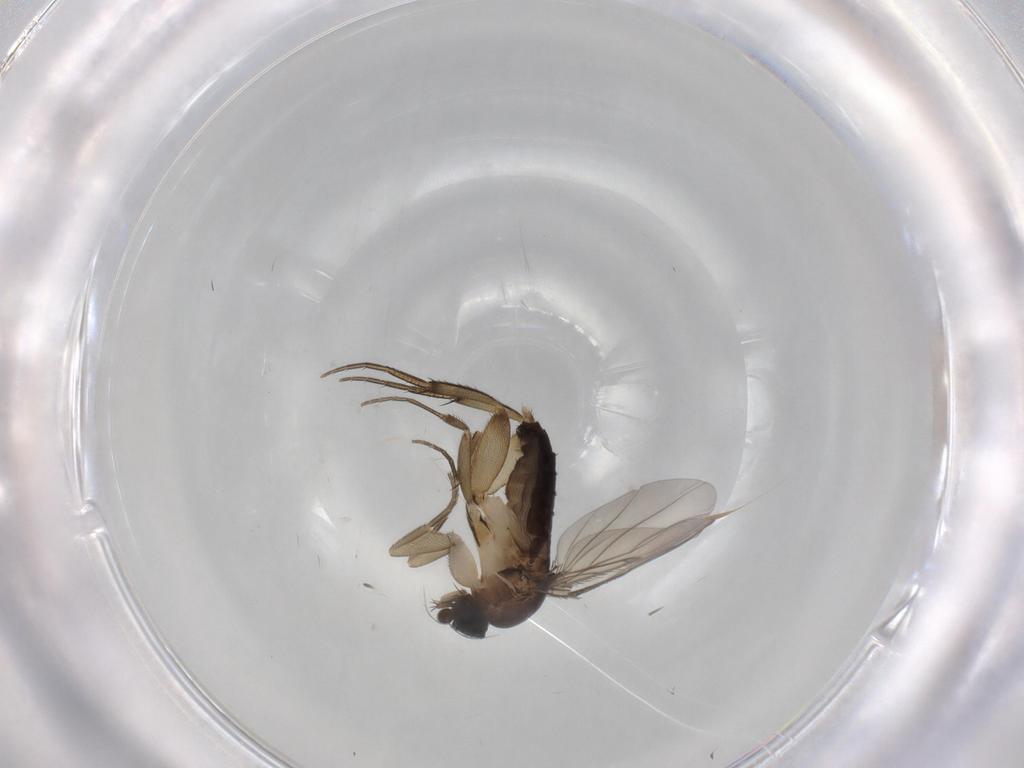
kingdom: Animalia
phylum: Arthropoda
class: Insecta
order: Diptera
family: Phoridae
